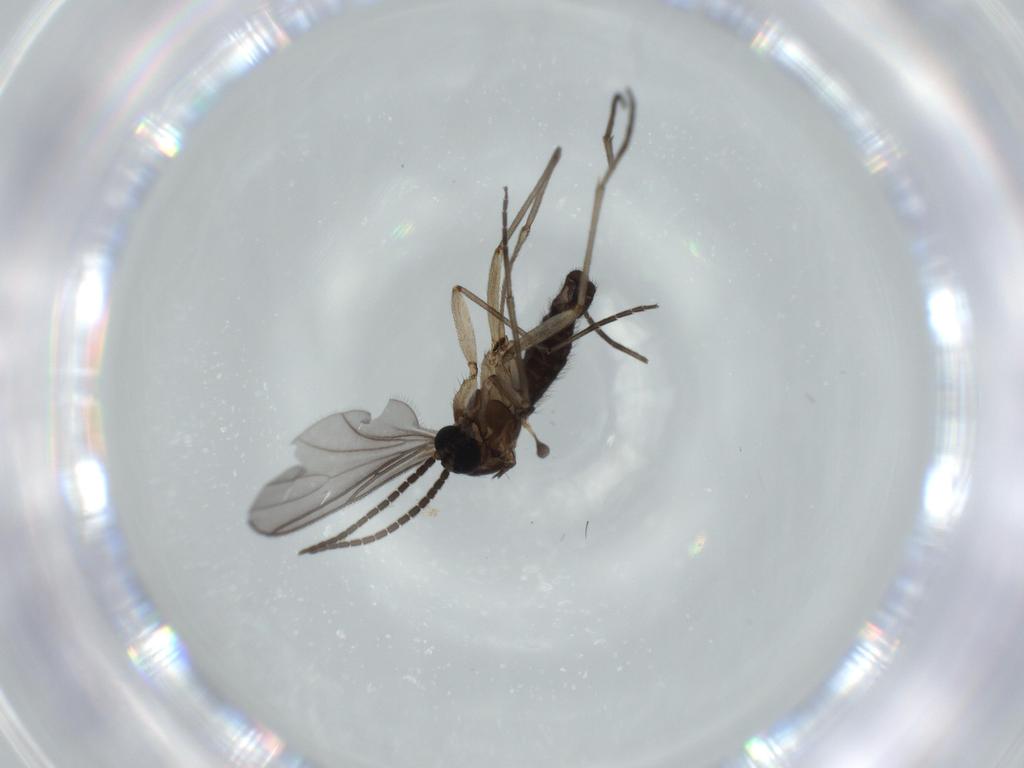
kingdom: Animalia
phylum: Arthropoda
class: Insecta
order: Diptera
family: Sciaridae
